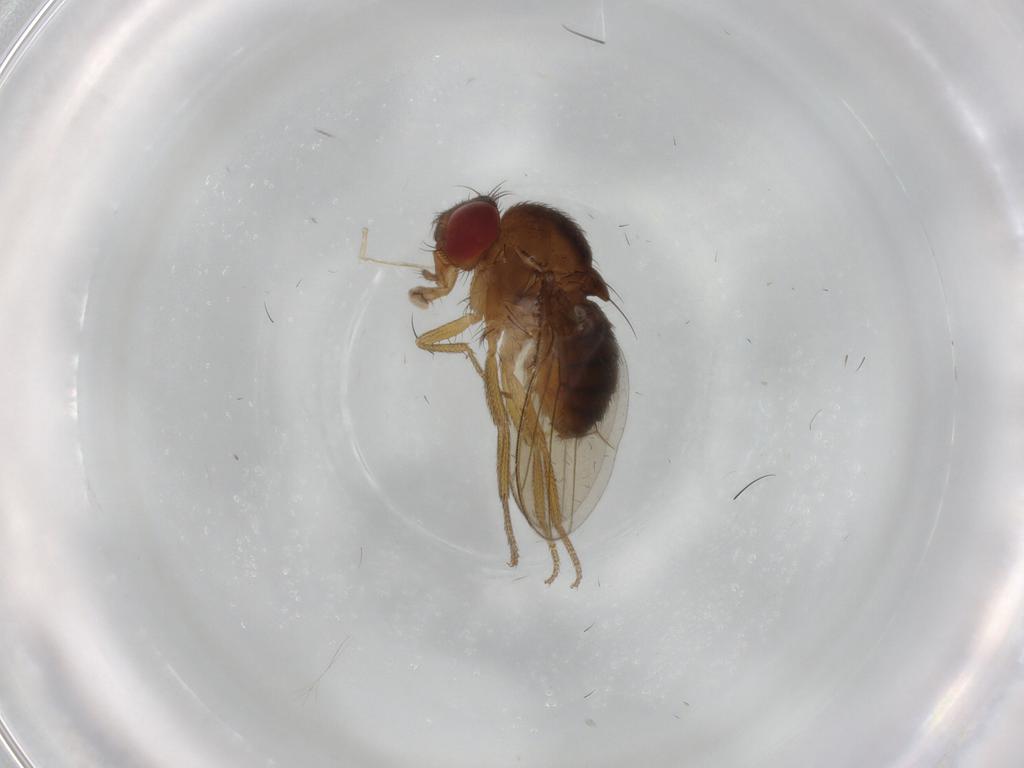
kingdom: Animalia
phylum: Arthropoda
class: Insecta
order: Diptera
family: Drosophilidae
